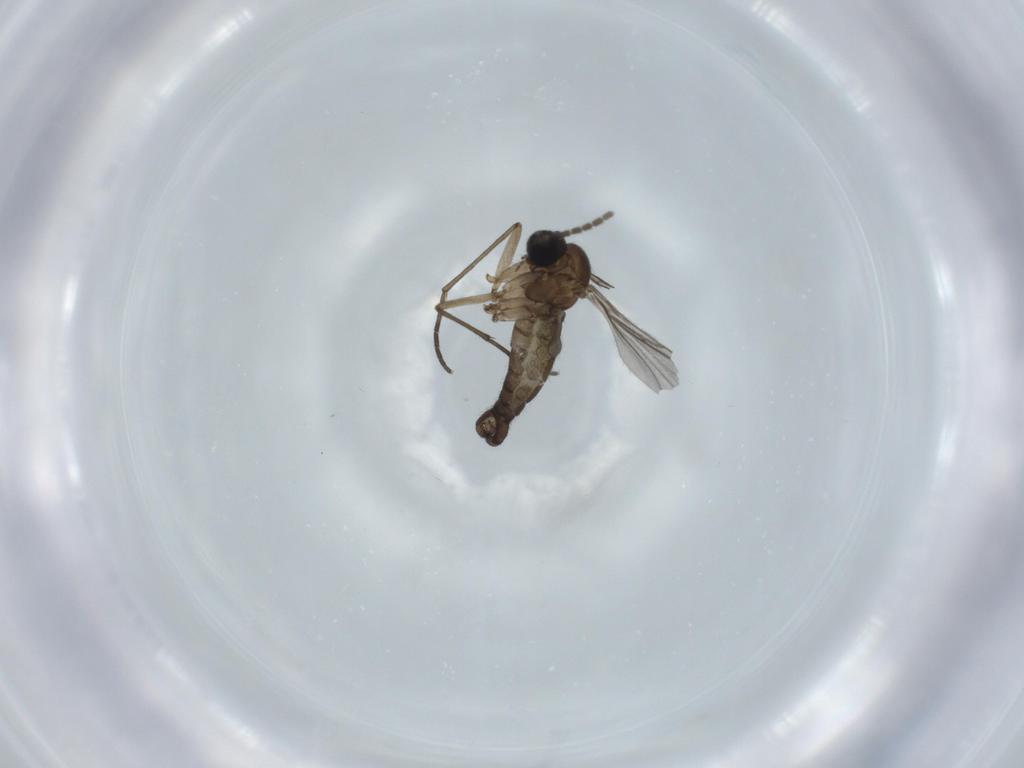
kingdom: Animalia
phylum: Arthropoda
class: Insecta
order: Diptera
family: Sciaridae
